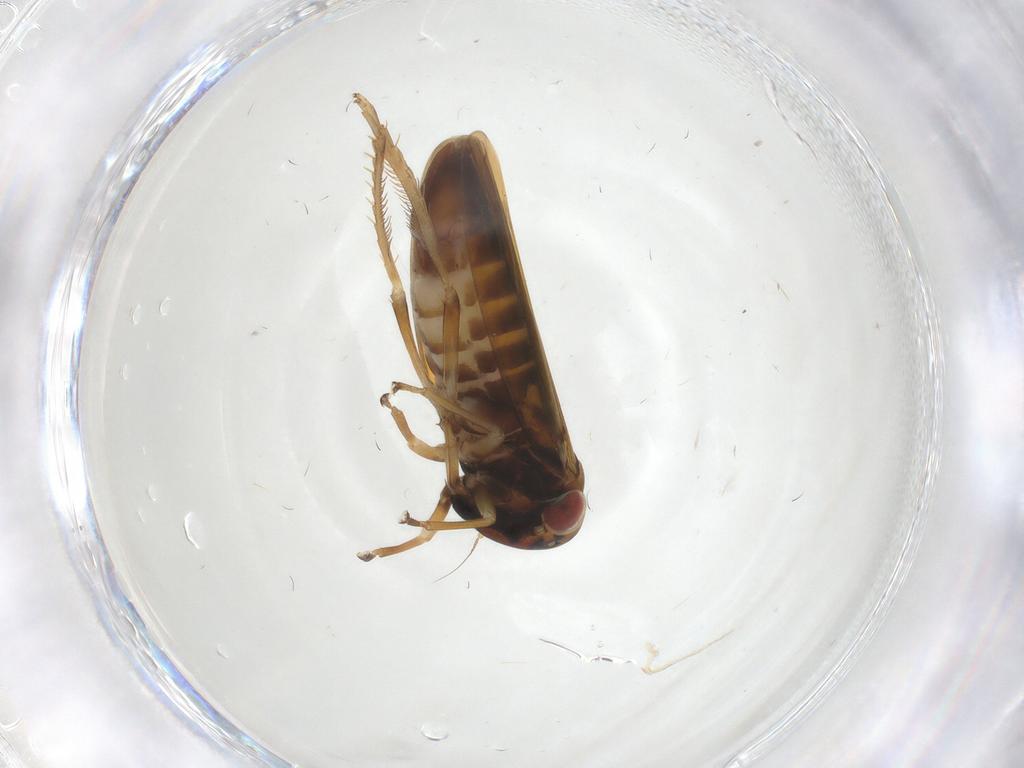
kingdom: Animalia
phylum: Arthropoda
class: Insecta
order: Hemiptera
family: Cicadellidae
